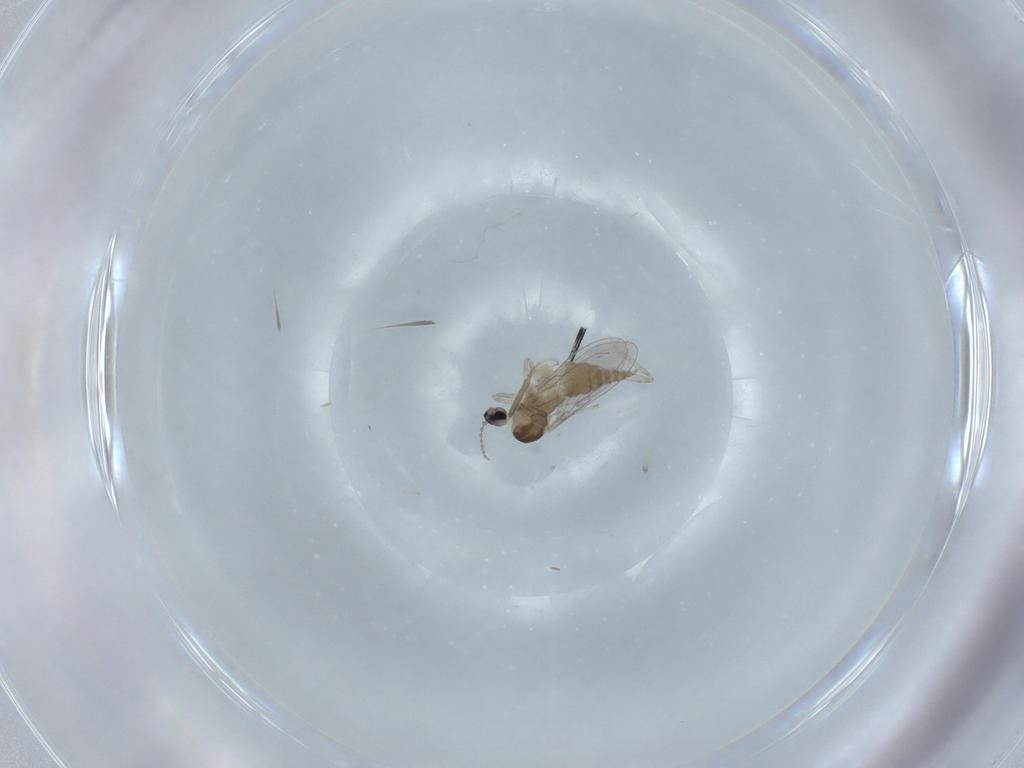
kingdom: Animalia
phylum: Arthropoda
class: Insecta
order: Diptera
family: Cecidomyiidae
